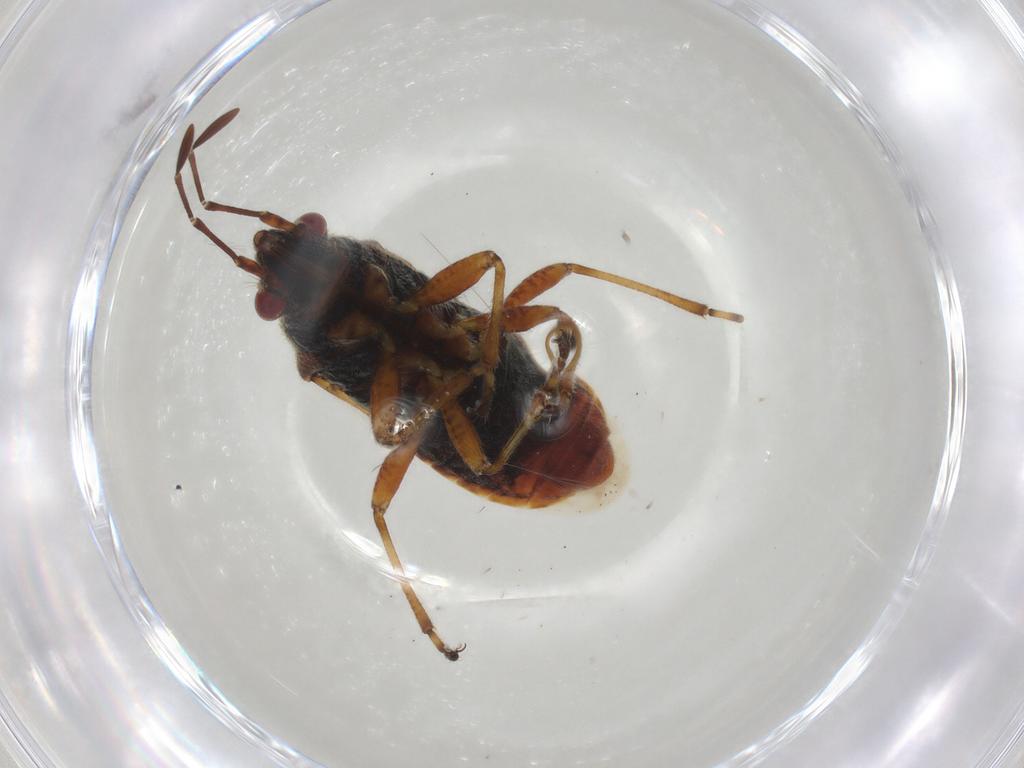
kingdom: Animalia
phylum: Arthropoda
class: Insecta
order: Hemiptera
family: Lygaeidae
